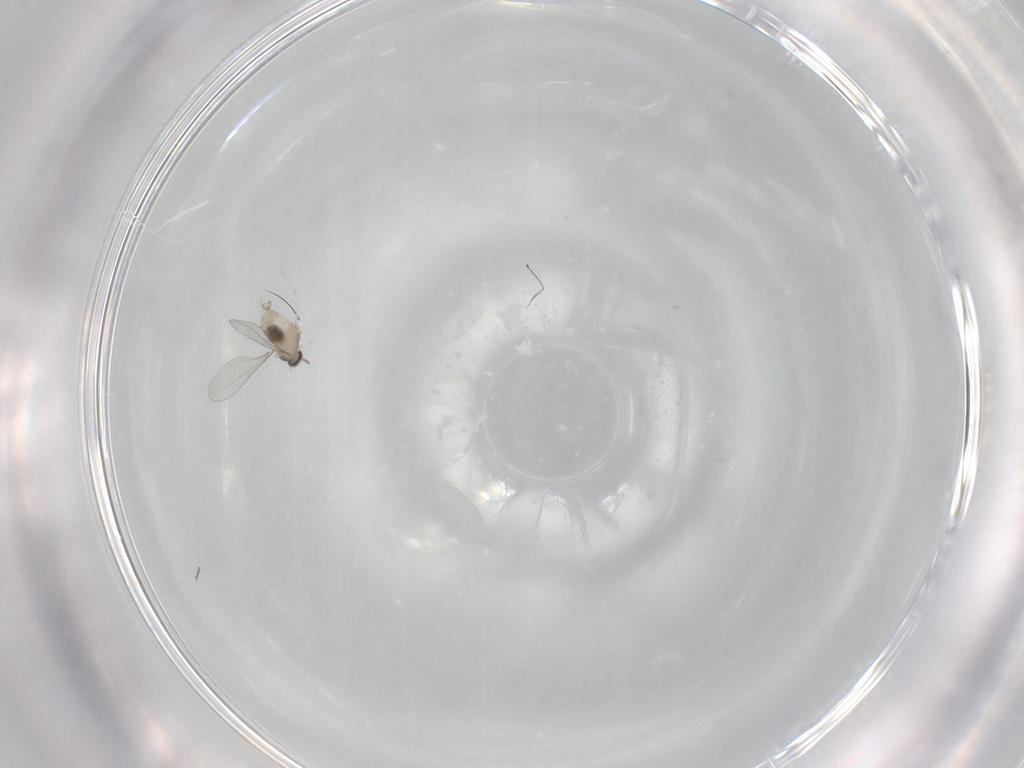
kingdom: Animalia
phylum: Arthropoda
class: Insecta
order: Diptera
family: Cecidomyiidae
